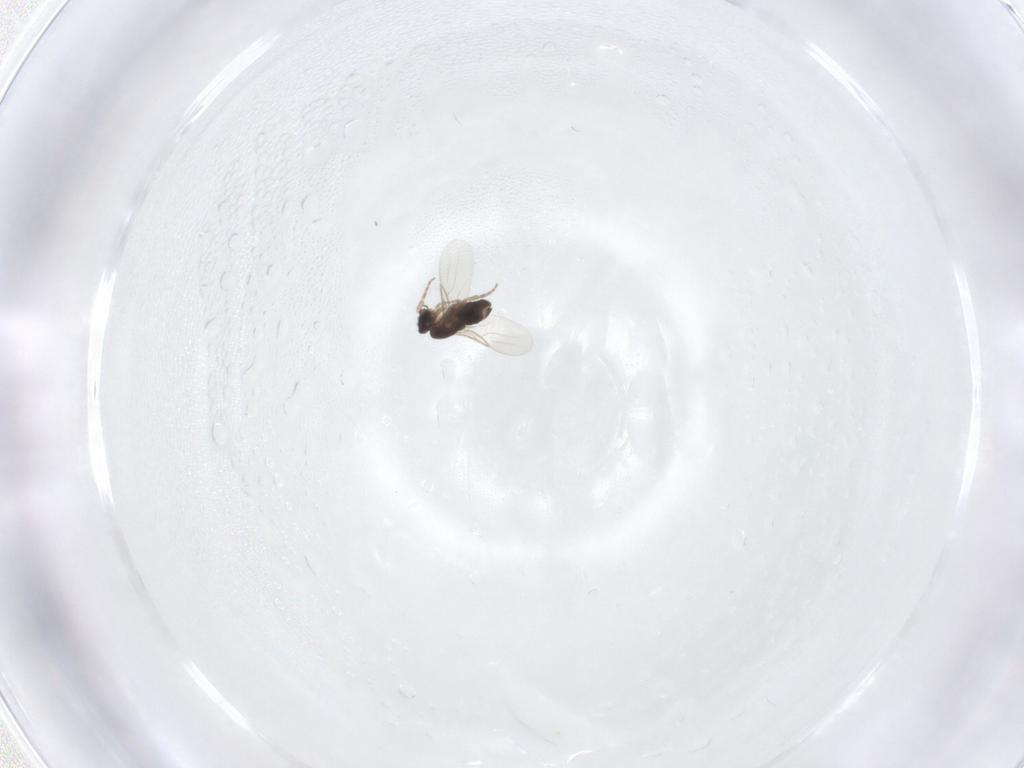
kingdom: Animalia
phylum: Arthropoda
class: Insecta
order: Diptera
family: Phoridae
